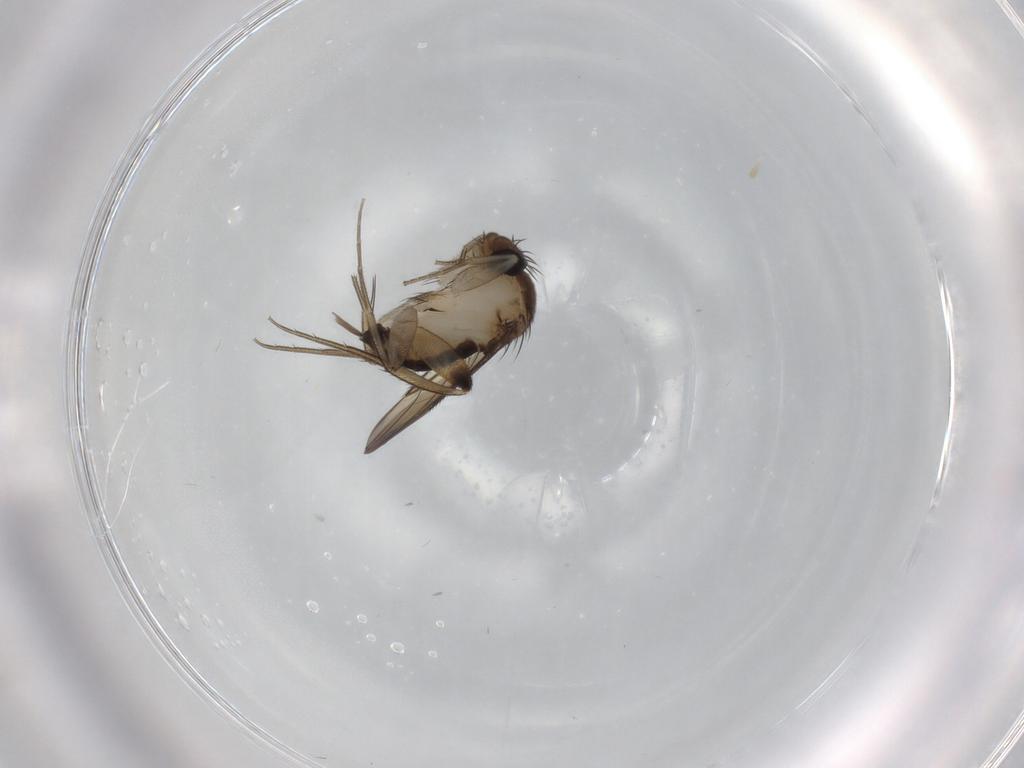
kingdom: Animalia
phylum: Arthropoda
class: Insecta
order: Diptera
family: Phoridae
